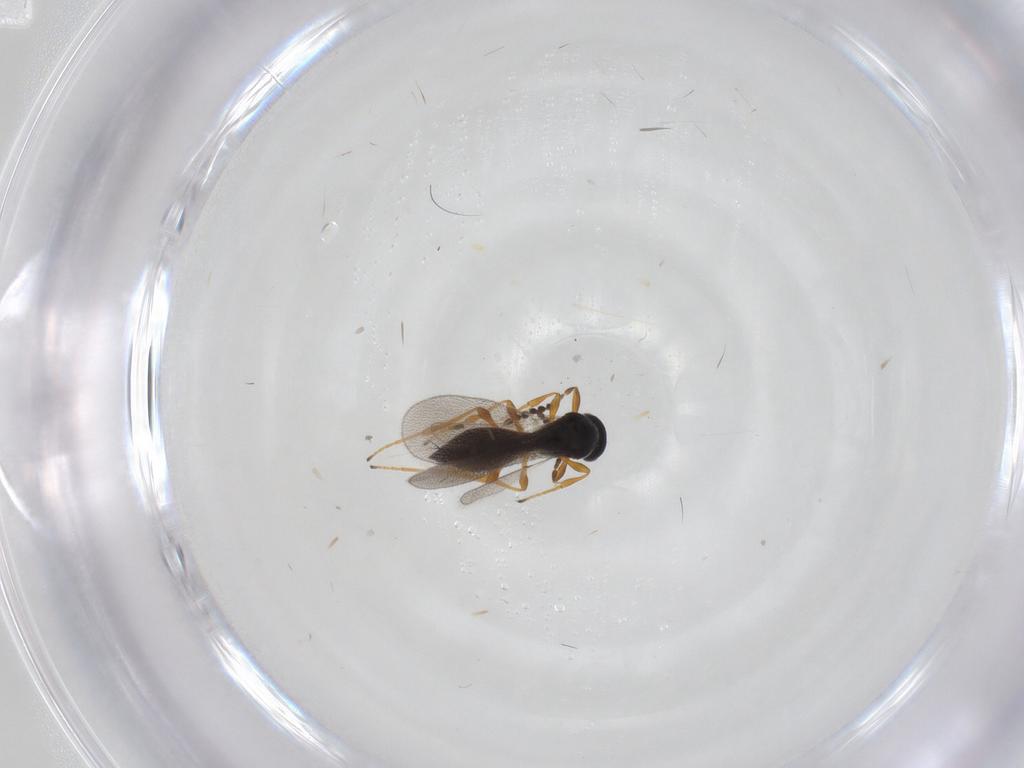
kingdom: Animalia
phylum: Arthropoda
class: Insecta
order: Hymenoptera
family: Platygastridae
